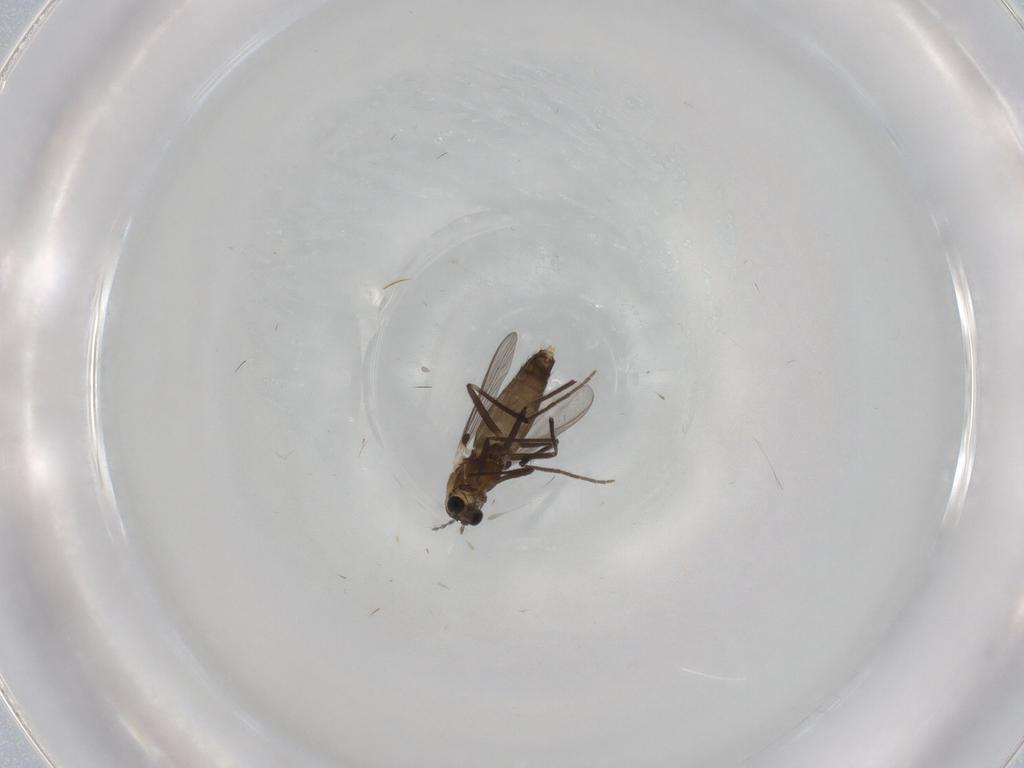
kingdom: Animalia
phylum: Arthropoda
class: Insecta
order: Diptera
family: Chironomidae
